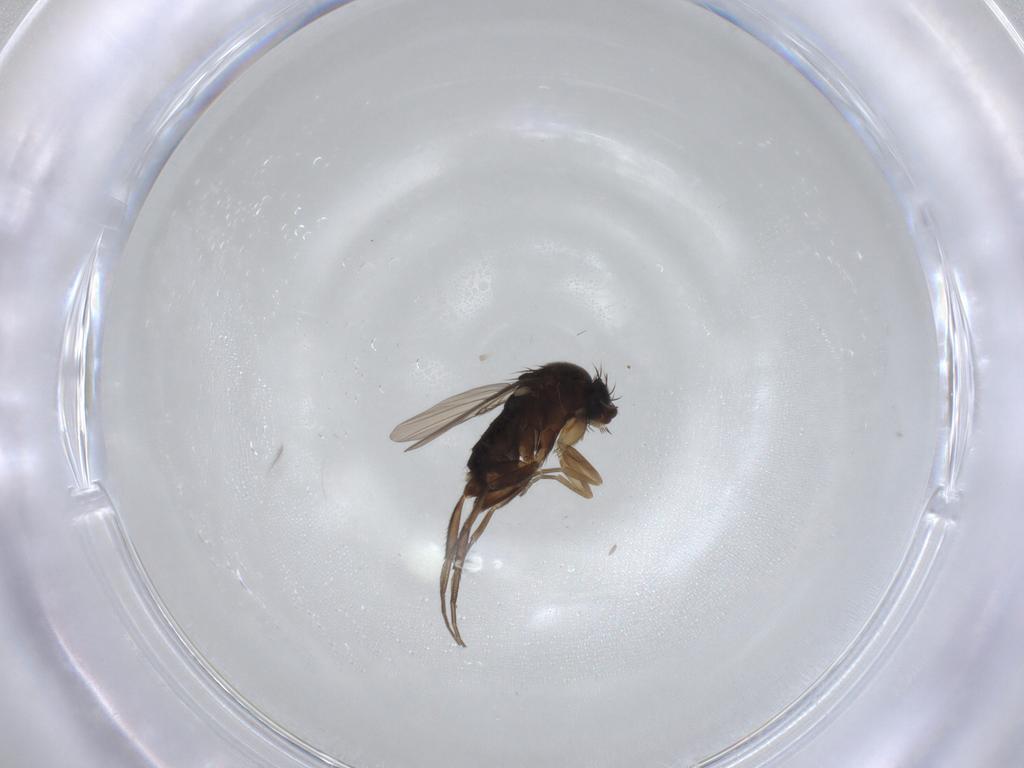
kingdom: Animalia
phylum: Arthropoda
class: Insecta
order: Diptera
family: Phoridae
